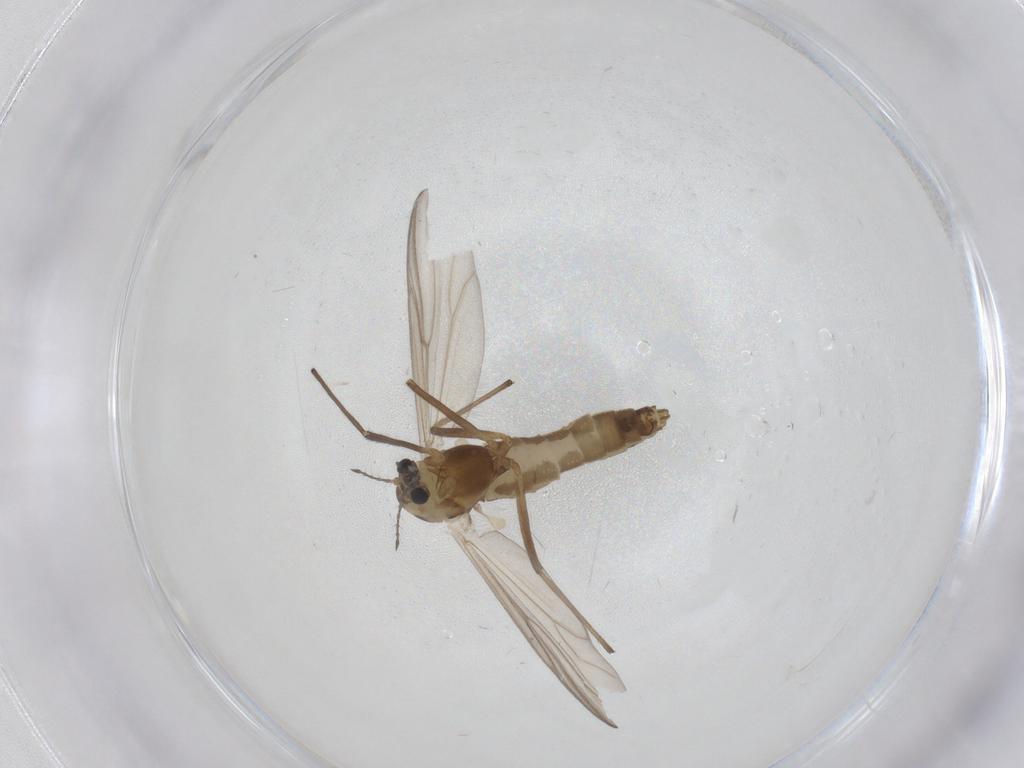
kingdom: Animalia
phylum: Arthropoda
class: Insecta
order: Diptera
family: Chironomidae
